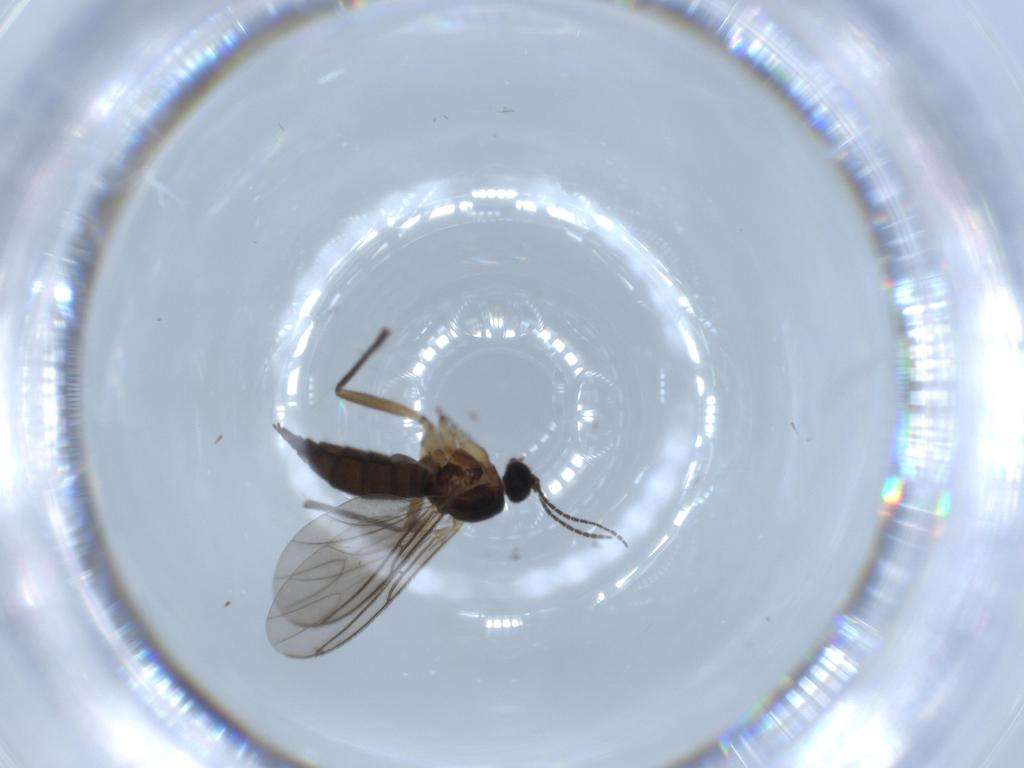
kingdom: Animalia
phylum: Arthropoda
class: Insecta
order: Diptera
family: Sciaridae
